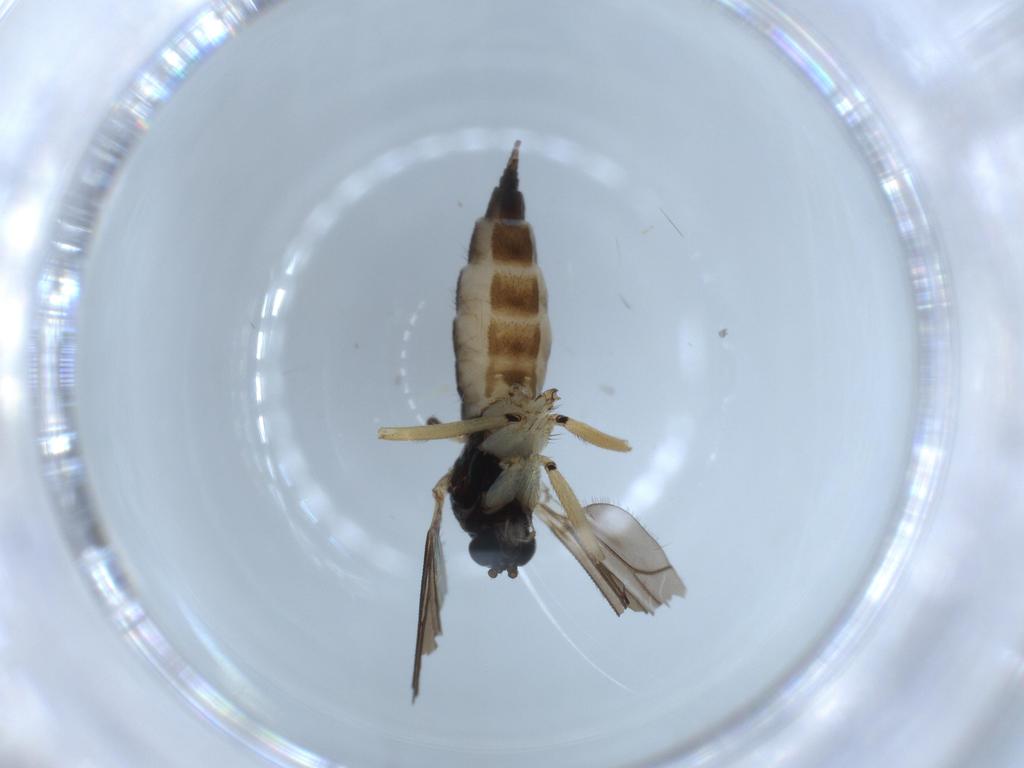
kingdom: Animalia
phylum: Arthropoda
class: Insecta
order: Diptera
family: Sciaridae
